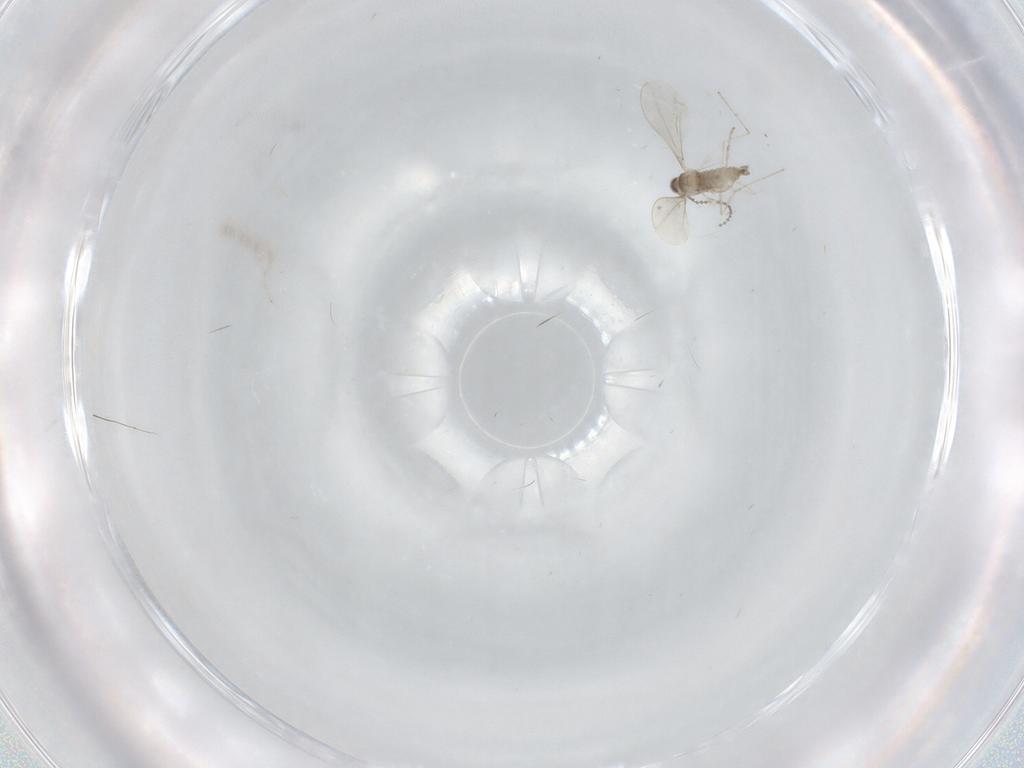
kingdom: Animalia
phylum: Arthropoda
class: Insecta
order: Diptera
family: Cecidomyiidae
